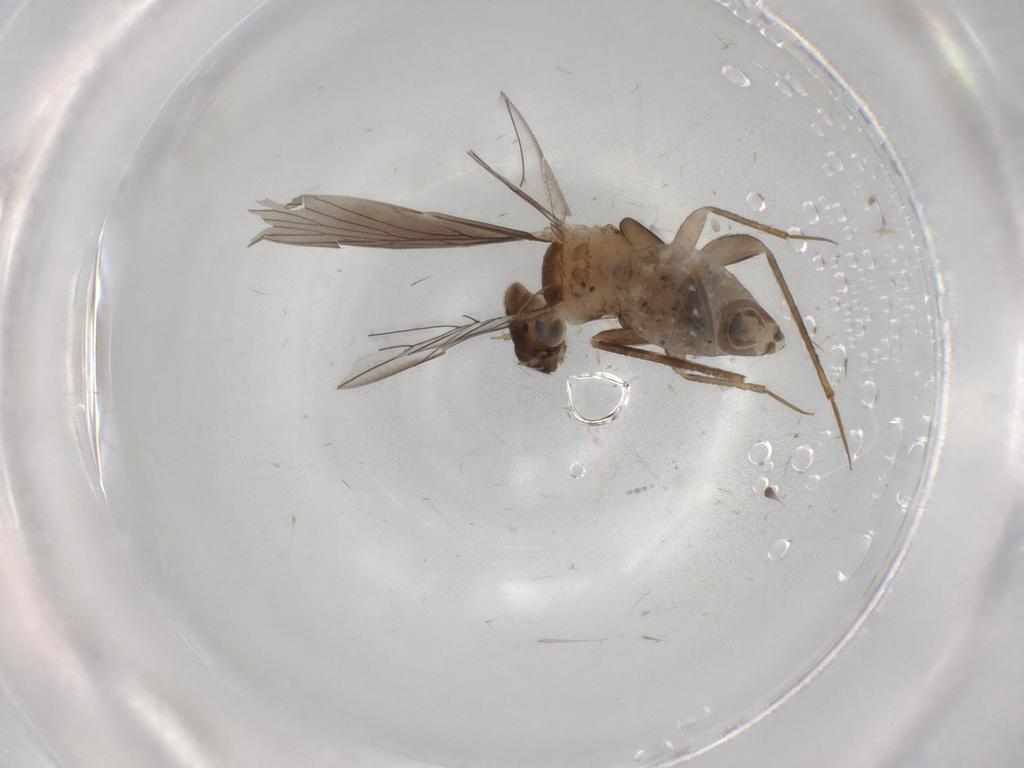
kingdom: Animalia
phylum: Arthropoda
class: Insecta
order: Psocodea
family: Lepidopsocidae
